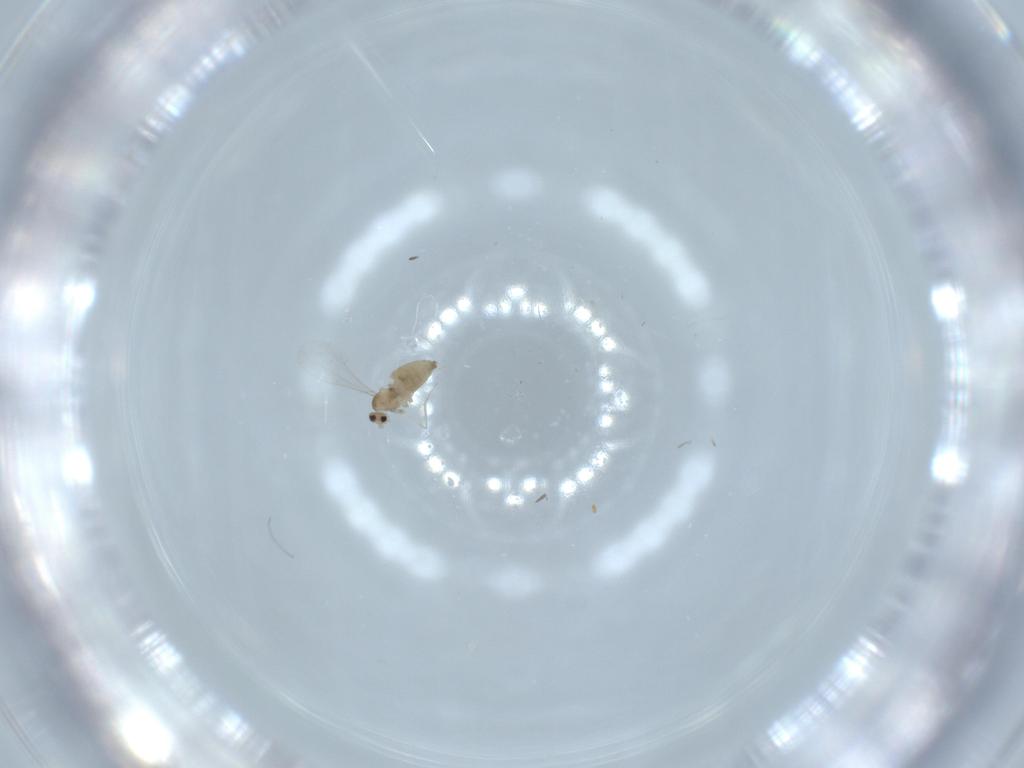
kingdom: Animalia
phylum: Arthropoda
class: Insecta
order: Diptera
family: Cecidomyiidae
